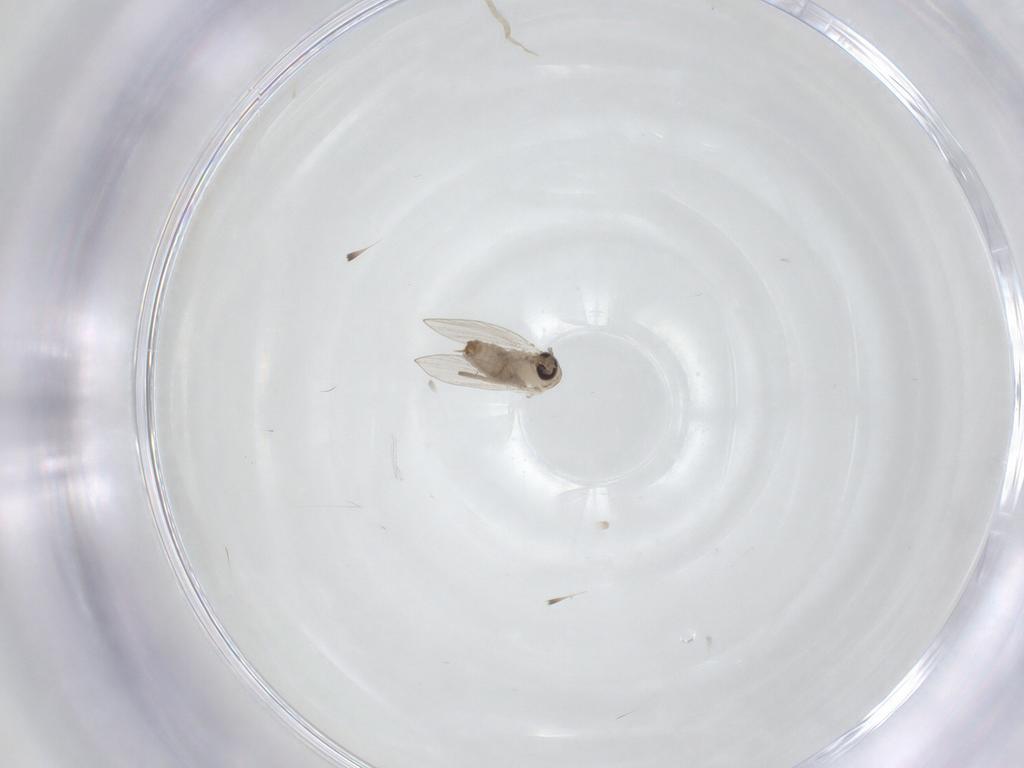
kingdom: Animalia
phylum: Arthropoda
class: Insecta
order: Diptera
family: Psychodidae
